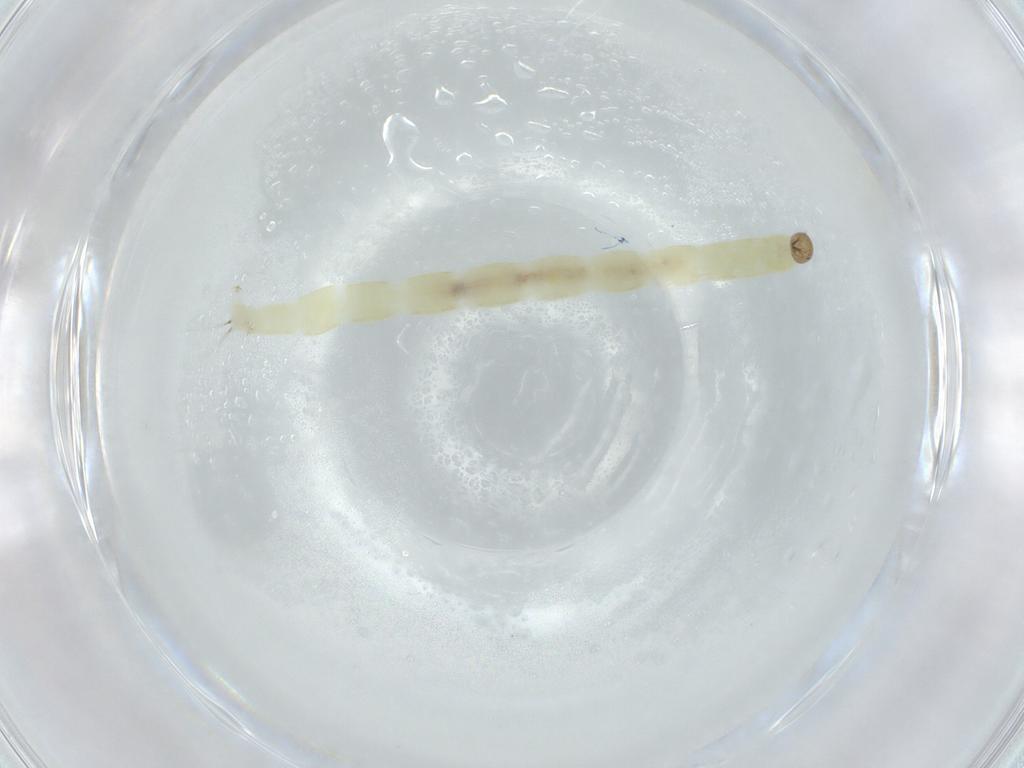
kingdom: Animalia
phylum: Arthropoda
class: Insecta
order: Diptera
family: Chironomidae
